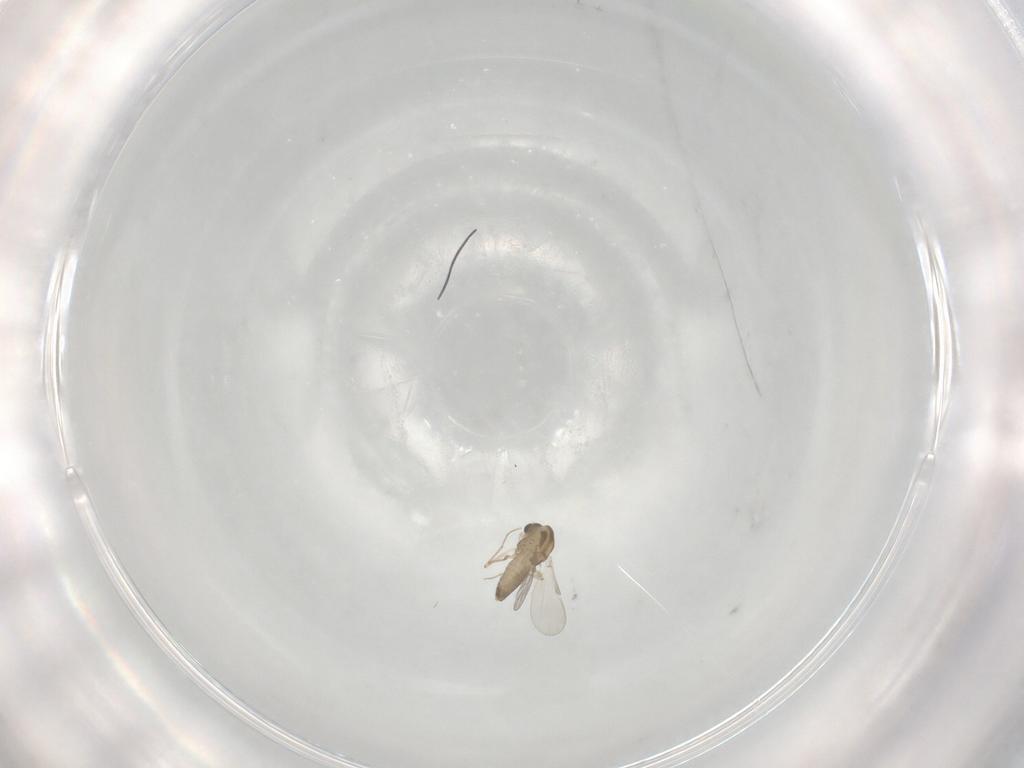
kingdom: Animalia
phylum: Arthropoda
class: Insecta
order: Diptera
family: Chironomidae
